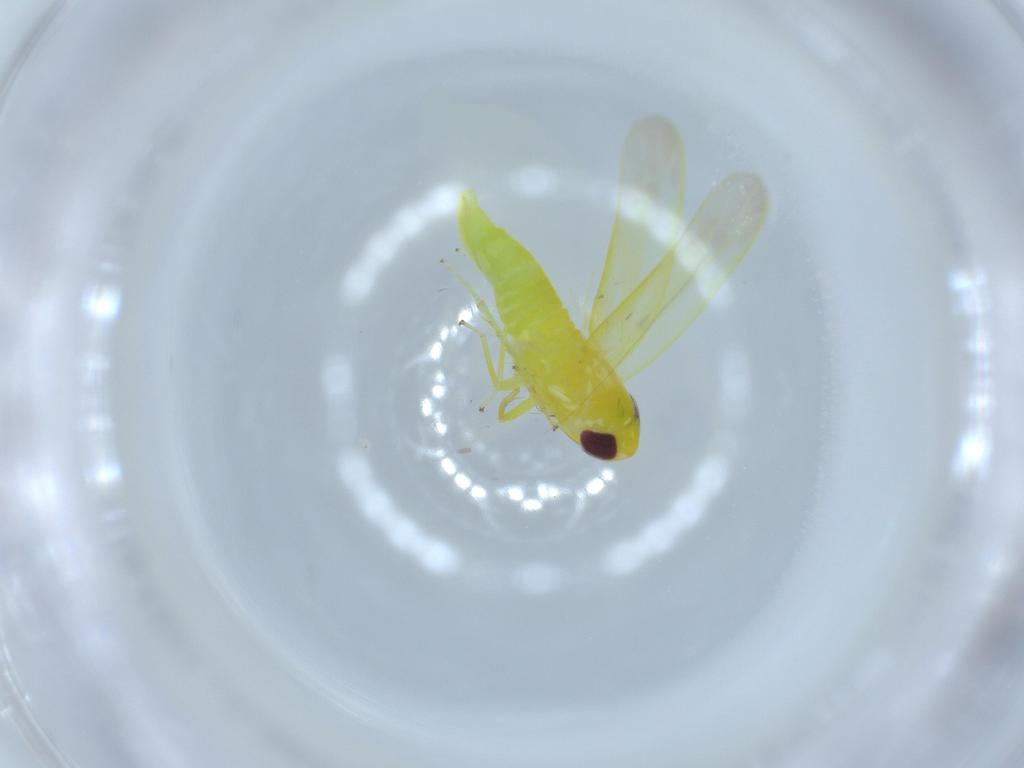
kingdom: Animalia
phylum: Arthropoda
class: Insecta
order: Hemiptera
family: Cicadellidae
